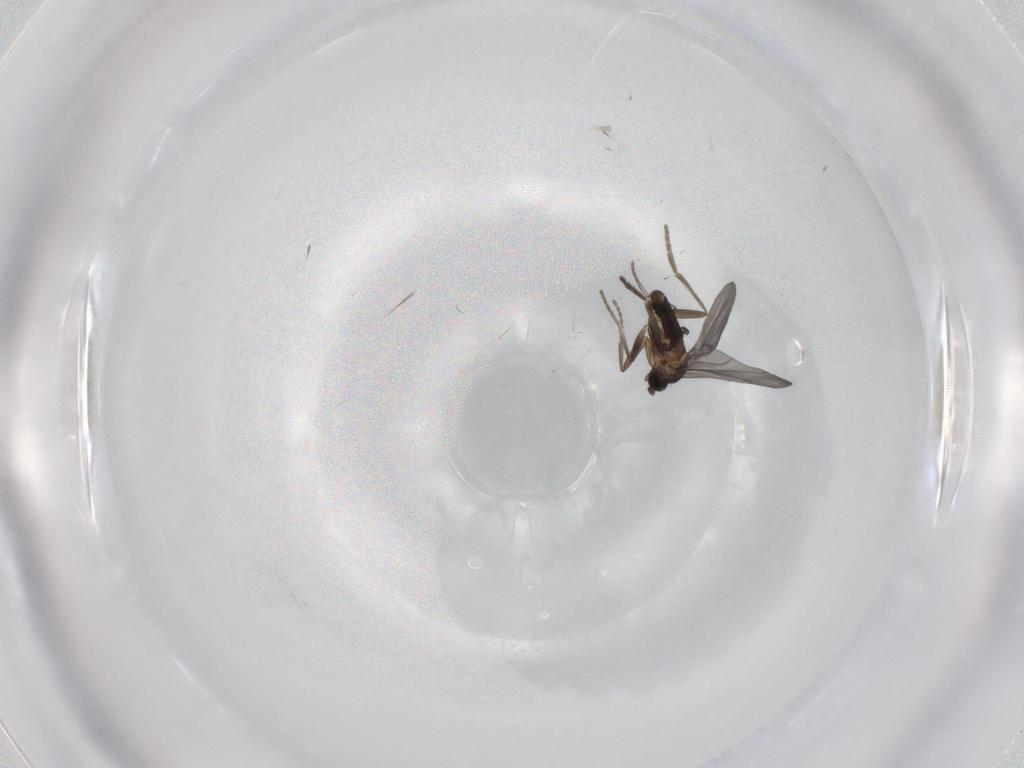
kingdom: Animalia
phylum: Arthropoda
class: Insecta
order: Diptera
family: Phoridae
